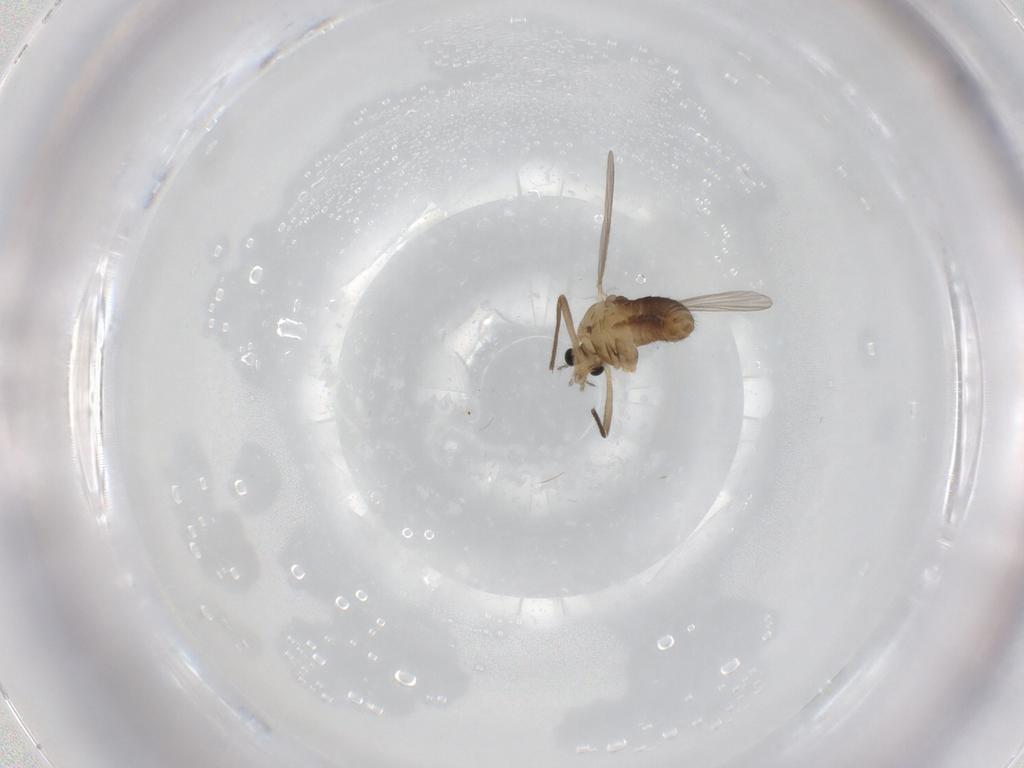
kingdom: Animalia
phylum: Arthropoda
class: Insecta
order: Diptera
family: Chironomidae
